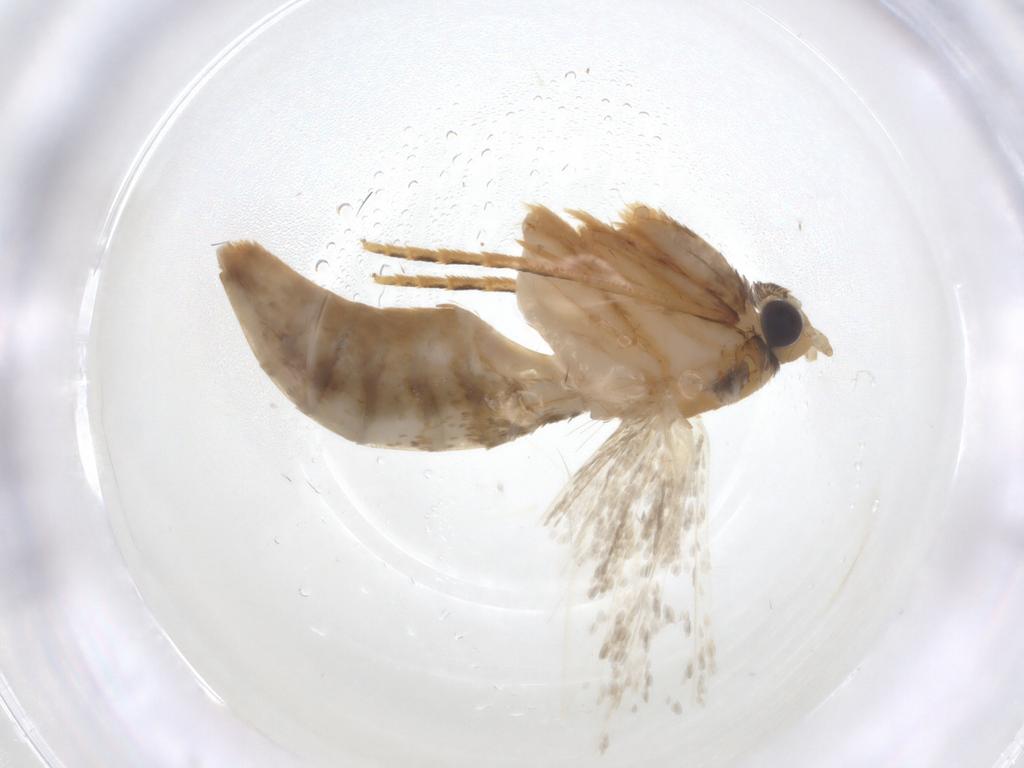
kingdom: Animalia
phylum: Arthropoda
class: Insecta
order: Lepidoptera
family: Tineidae
